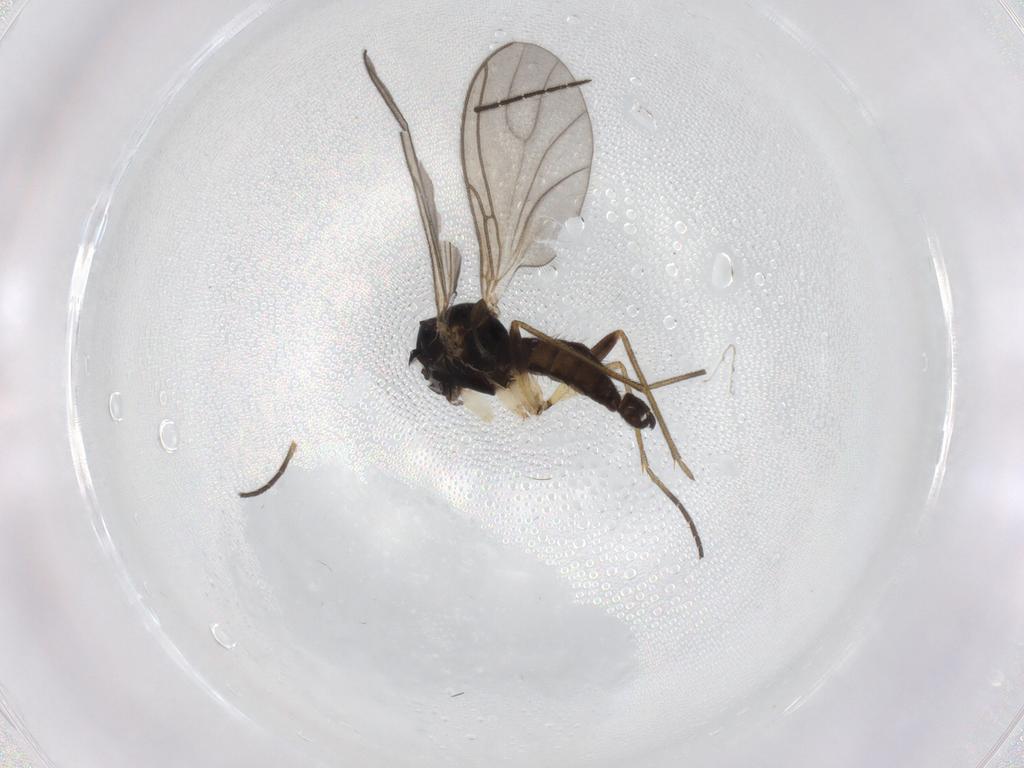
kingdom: Animalia
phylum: Arthropoda
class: Insecta
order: Diptera
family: Sciaridae
